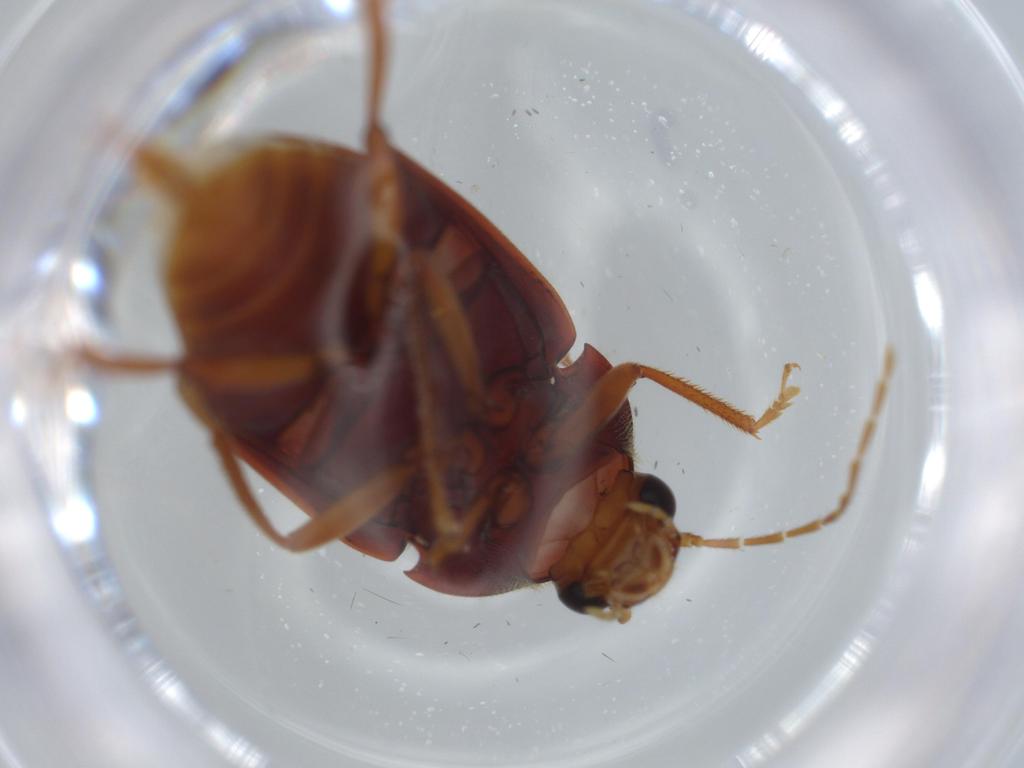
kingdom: Animalia
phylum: Arthropoda
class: Insecta
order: Coleoptera
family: Ptilodactylidae
